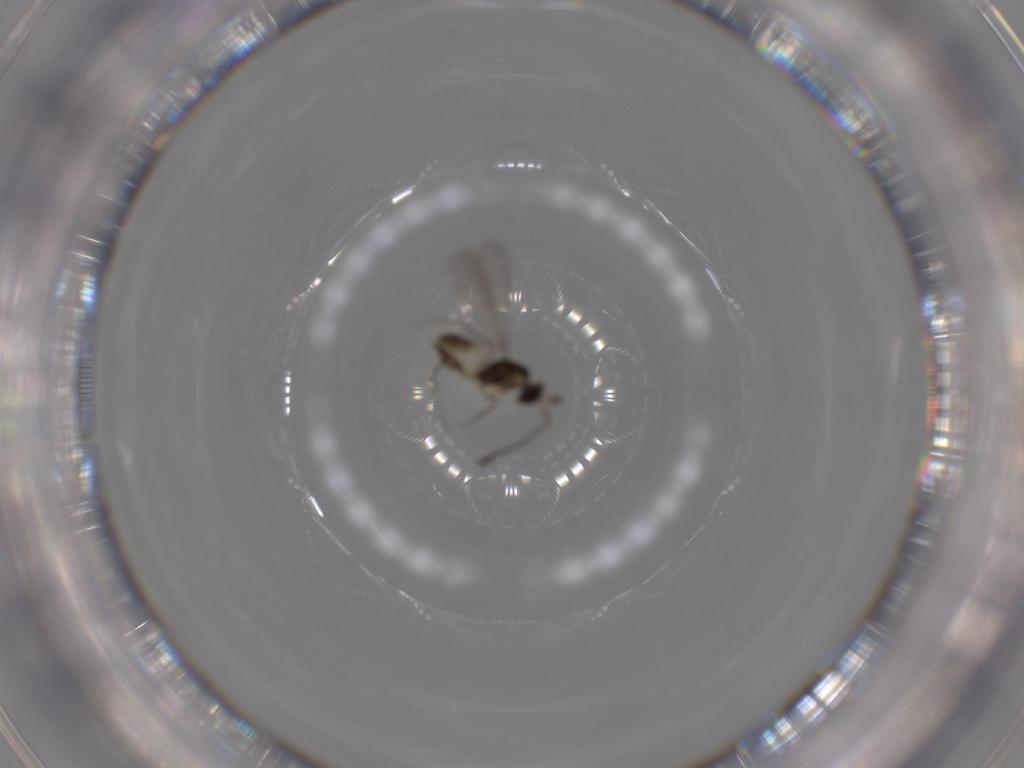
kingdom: Animalia
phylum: Arthropoda
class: Insecta
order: Hymenoptera
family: Mymaridae
